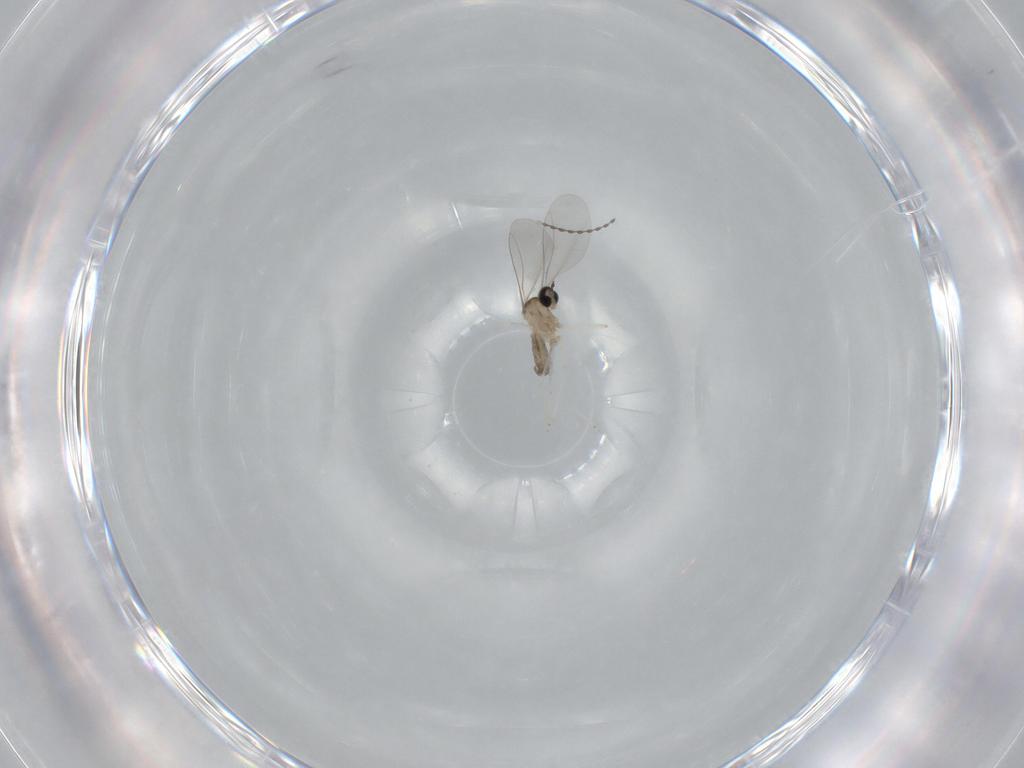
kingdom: Animalia
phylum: Arthropoda
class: Insecta
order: Diptera
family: Cecidomyiidae
